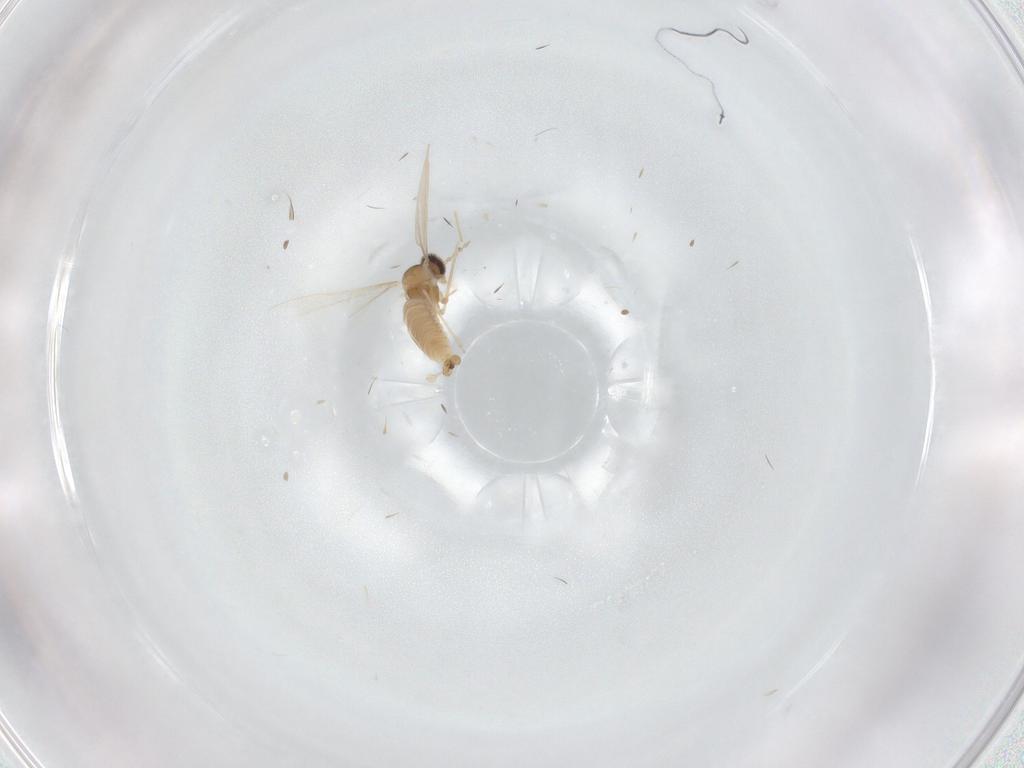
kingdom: Animalia
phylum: Arthropoda
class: Insecta
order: Diptera
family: Cecidomyiidae
